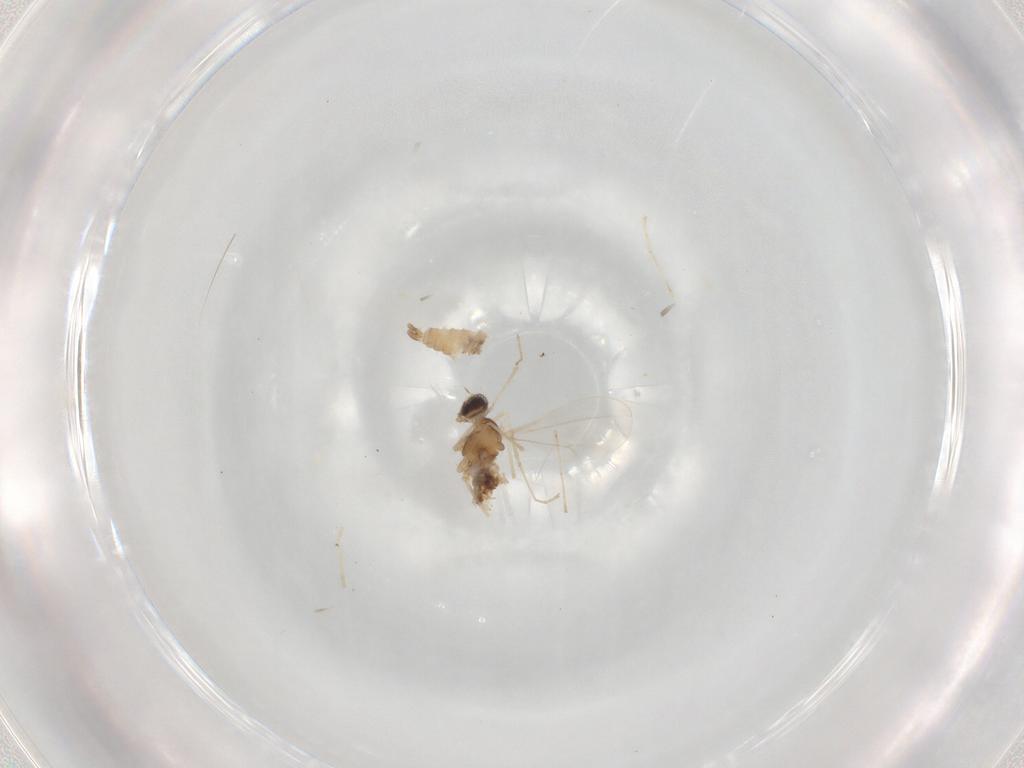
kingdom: Animalia
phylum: Arthropoda
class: Insecta
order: Diptera
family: Cecidomyiidae
